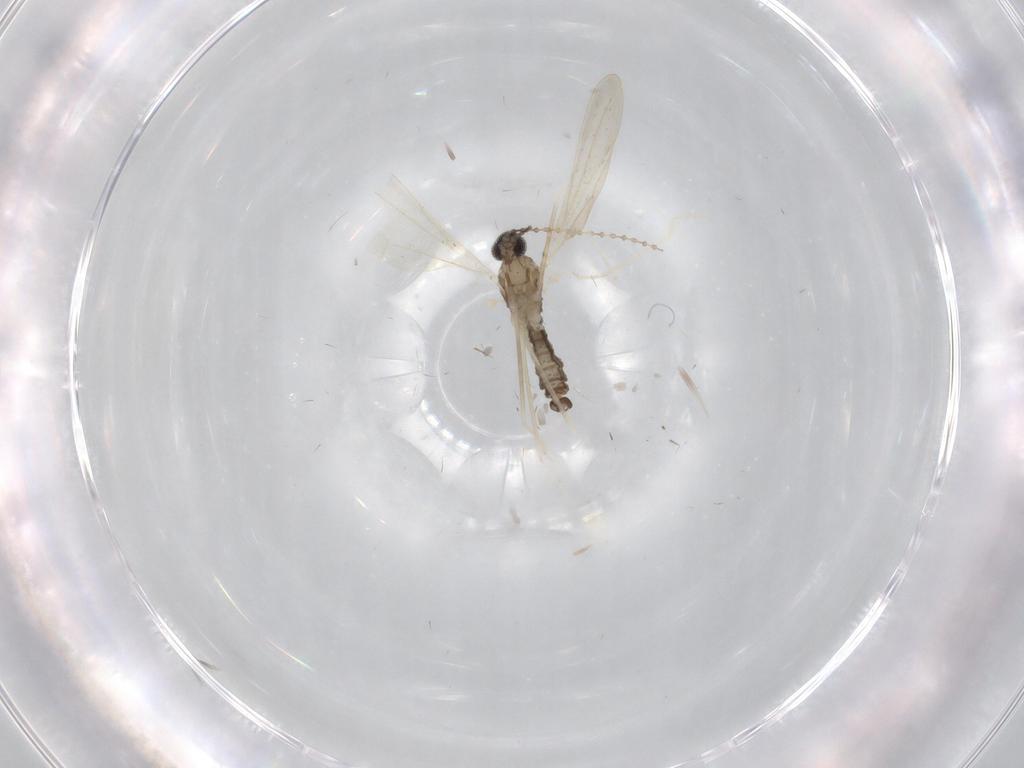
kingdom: Animalia
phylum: Arthropoda
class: Insecta
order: Diptera
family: Cecidomyiidae
